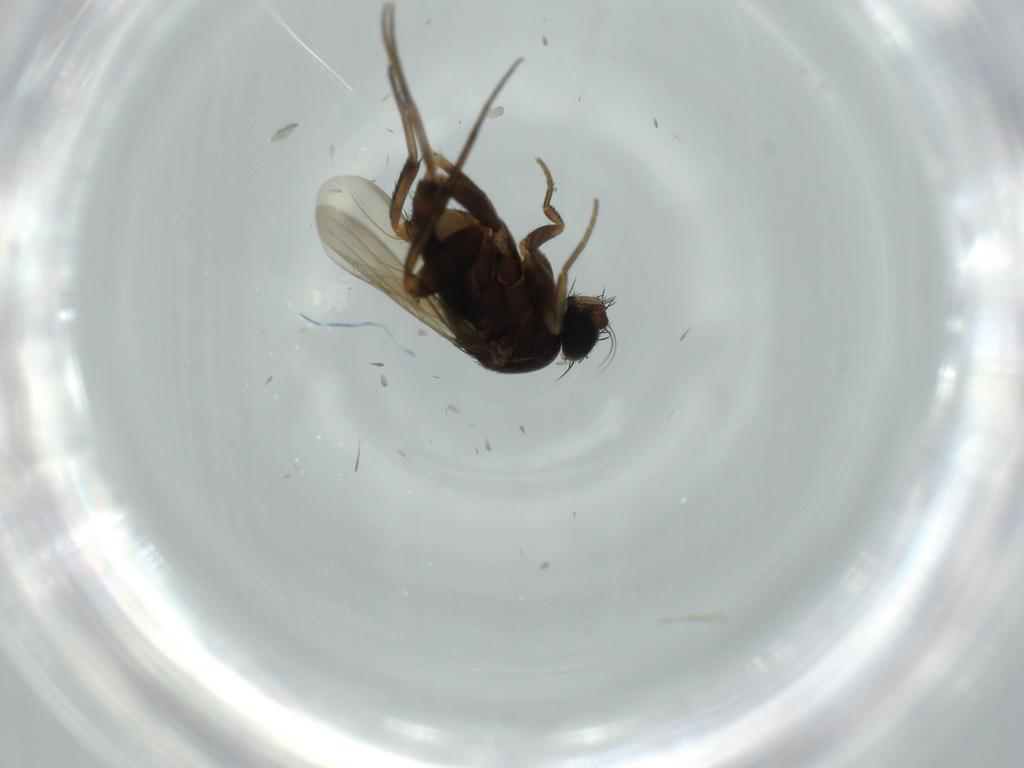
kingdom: Animalia
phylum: Arthropoda
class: Insecta
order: Diptera
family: Phoridae
